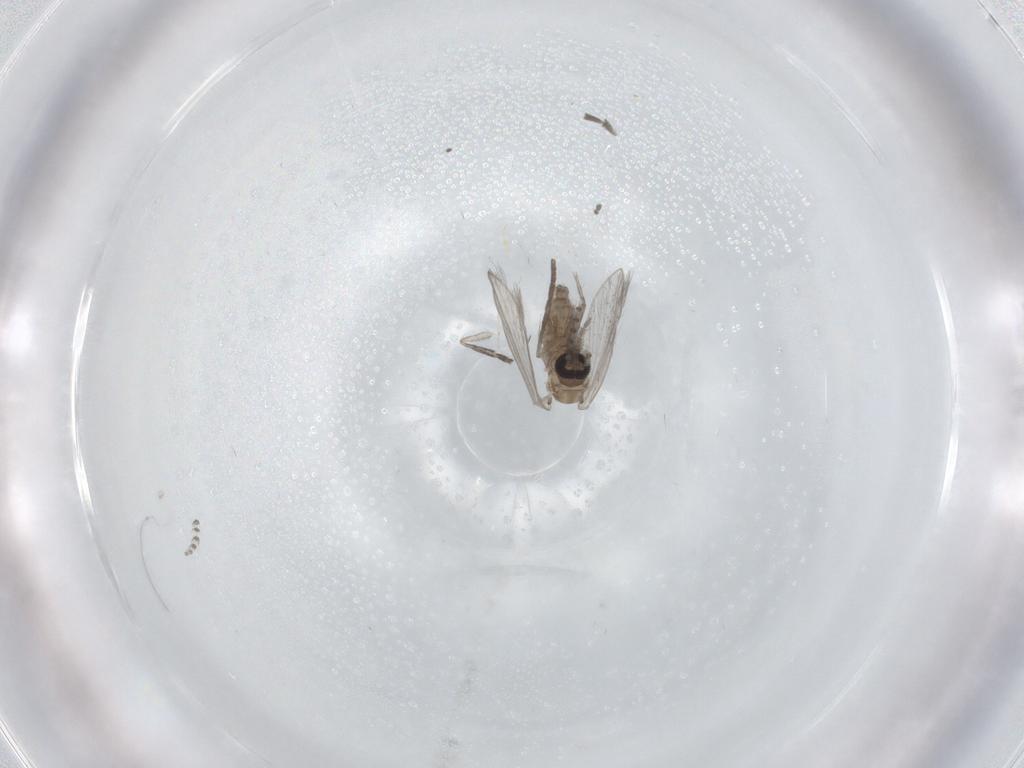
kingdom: Animalia
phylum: Arthropoda
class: Insecta
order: Diptera
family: Psychodidae
